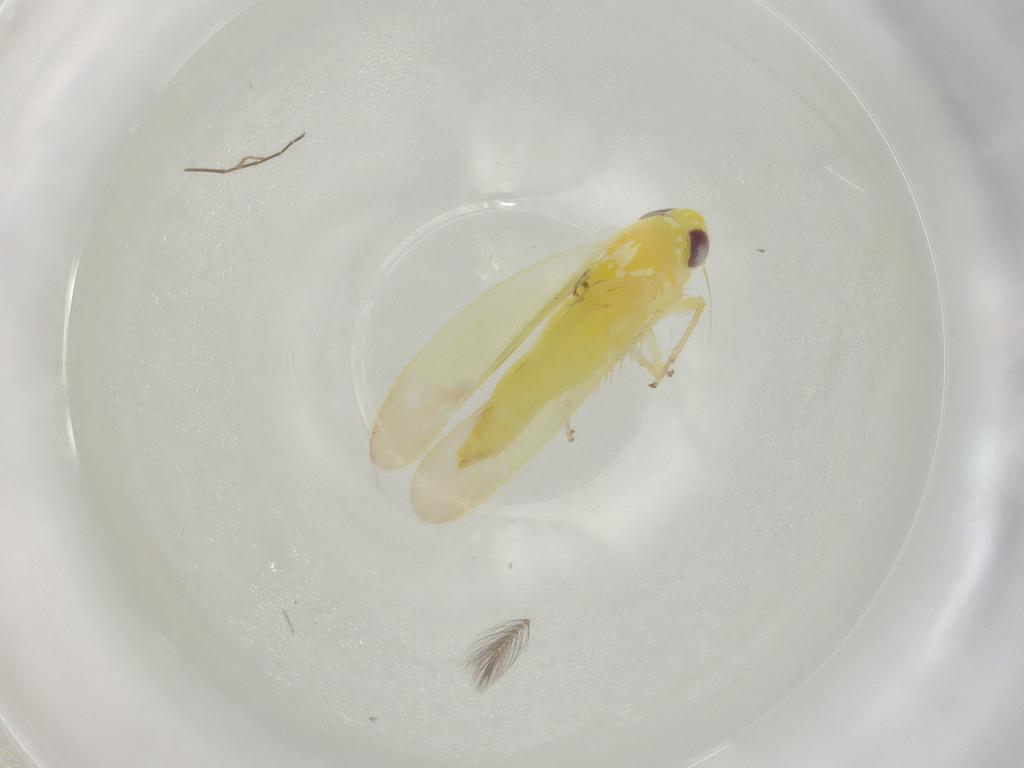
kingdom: Animalia
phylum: Arthropoda
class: Insecta
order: Hemiptera
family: Cicadellidae
